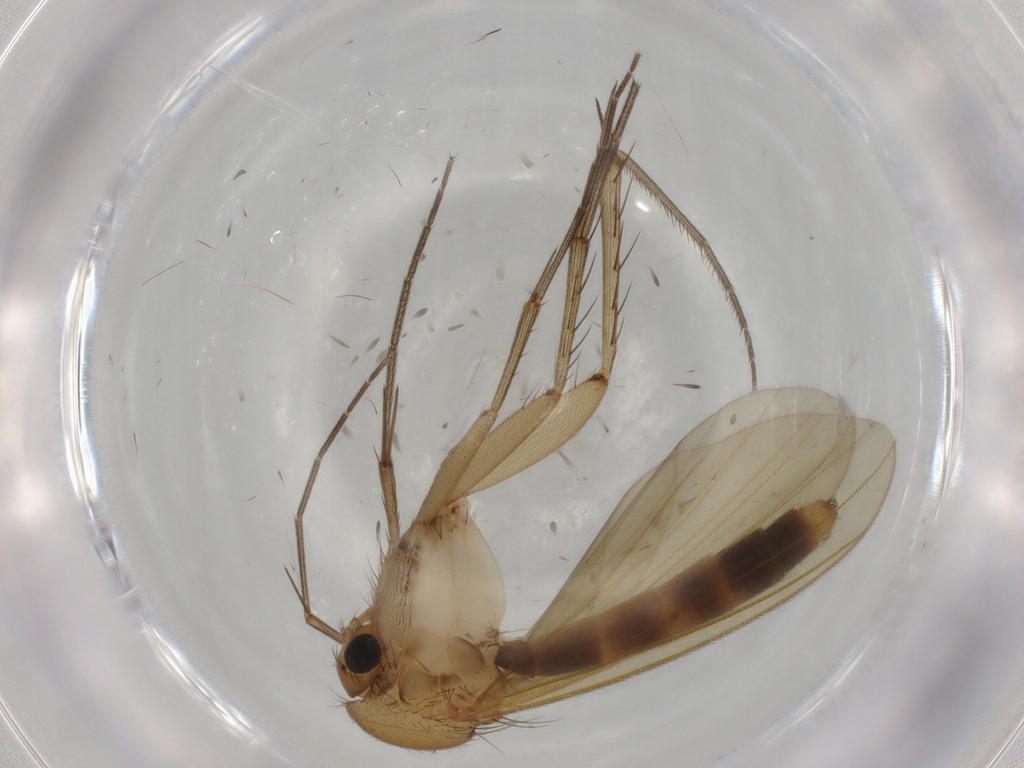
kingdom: Animalia
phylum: Arthropoda
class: Insecta
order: Diptera
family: Mycetophilidae
